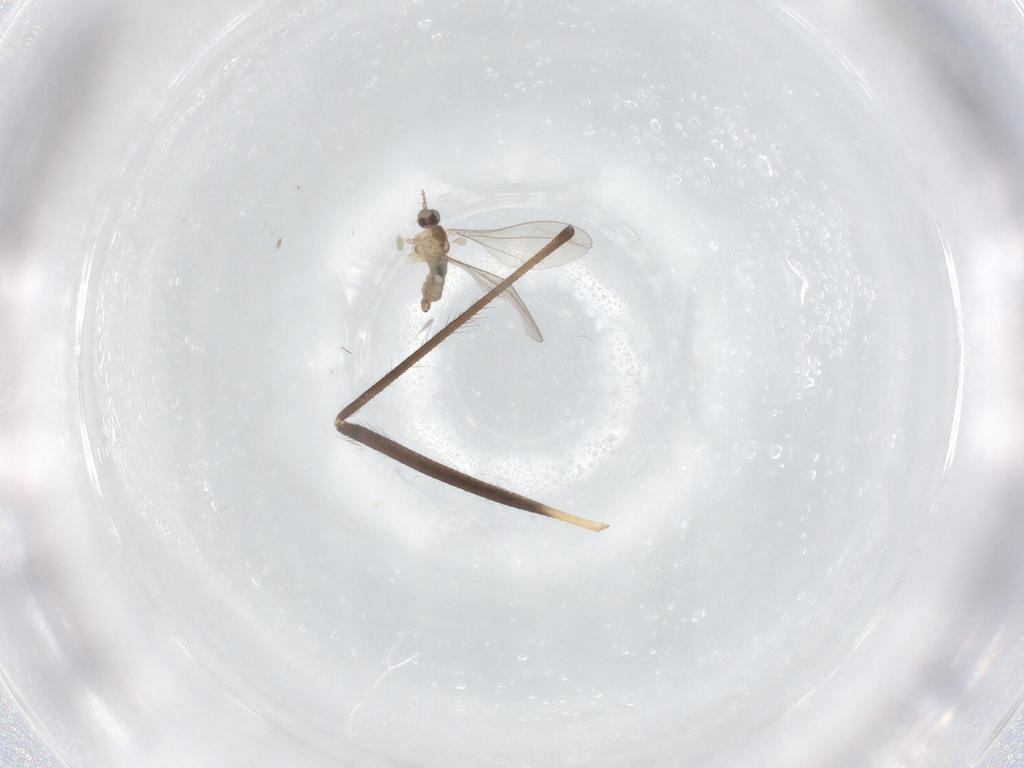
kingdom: Animalia
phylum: Arthropoda
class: Insecta
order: Diptera
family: Cecidomyiidae
